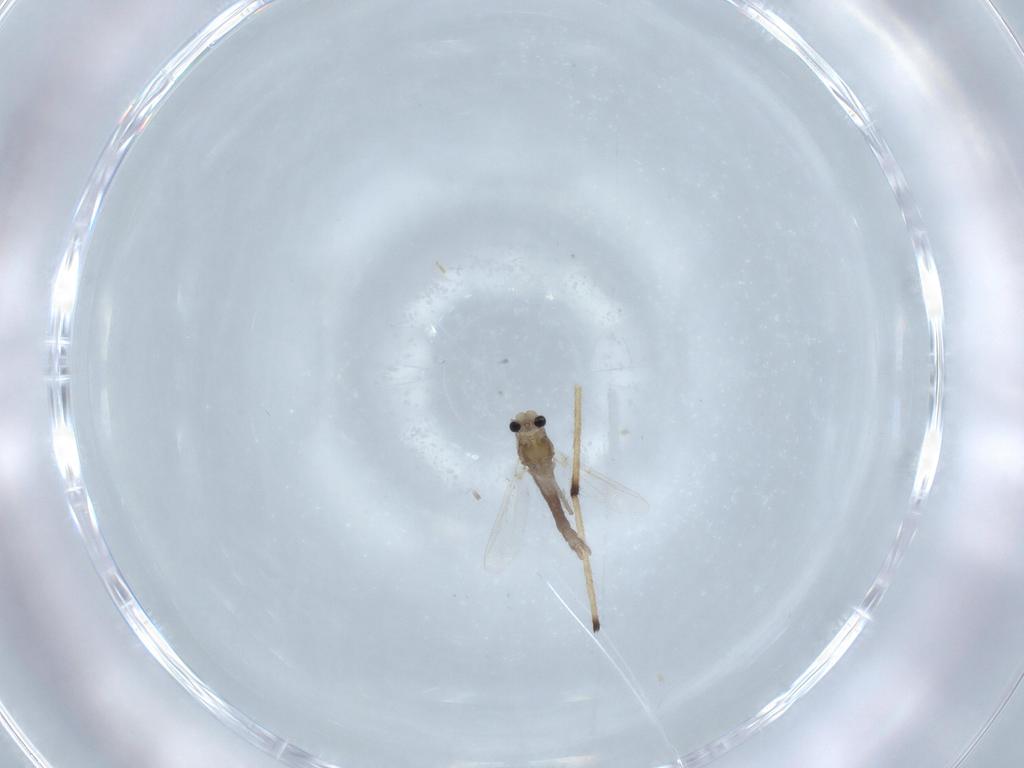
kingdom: Animalia
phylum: Arthropoda
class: Insecta
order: Diptera
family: Chironomidae
